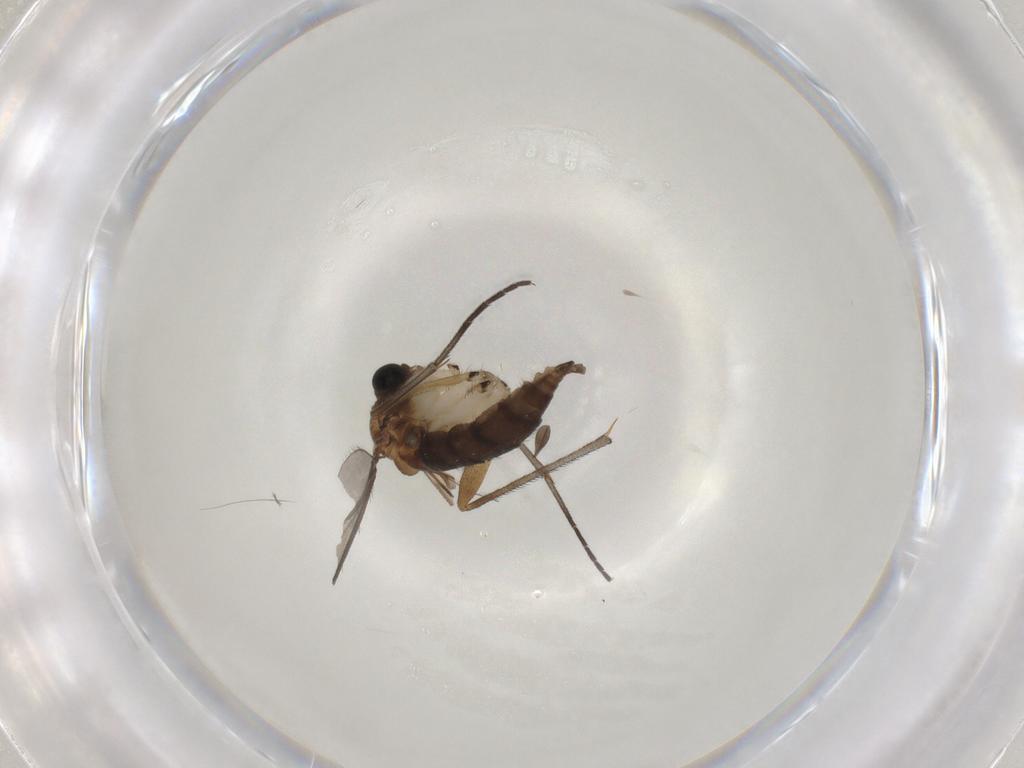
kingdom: Animalia
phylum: Arthropoda
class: Insecta
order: Diptera
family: Sciaridae
